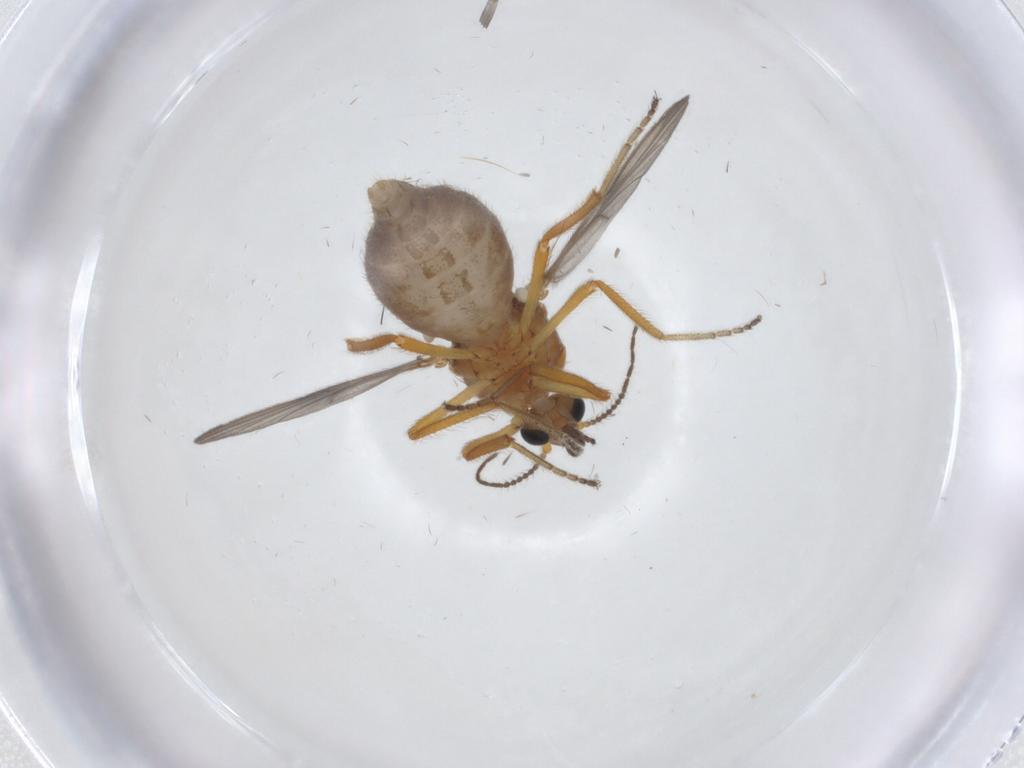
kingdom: Animalia
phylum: Arthropoda
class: Insecta
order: Diptera
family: Ceratopogonidae
